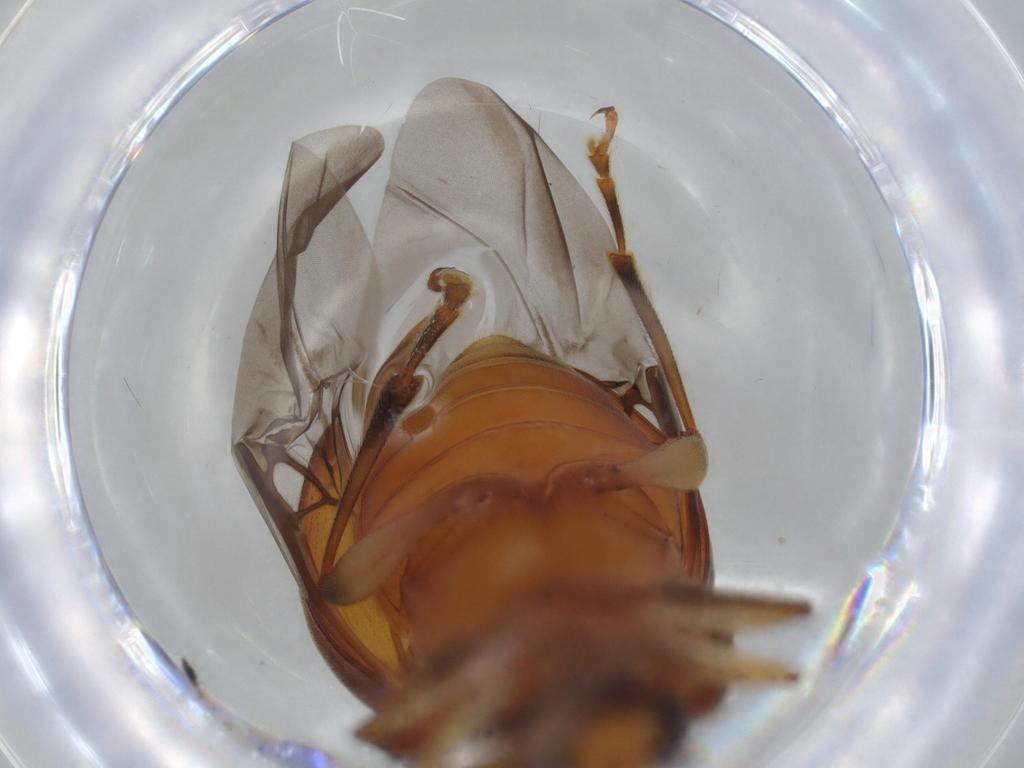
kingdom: Animalia
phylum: Arthropoda
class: Insecta
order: Coleoptera
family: Chrysomelidae
